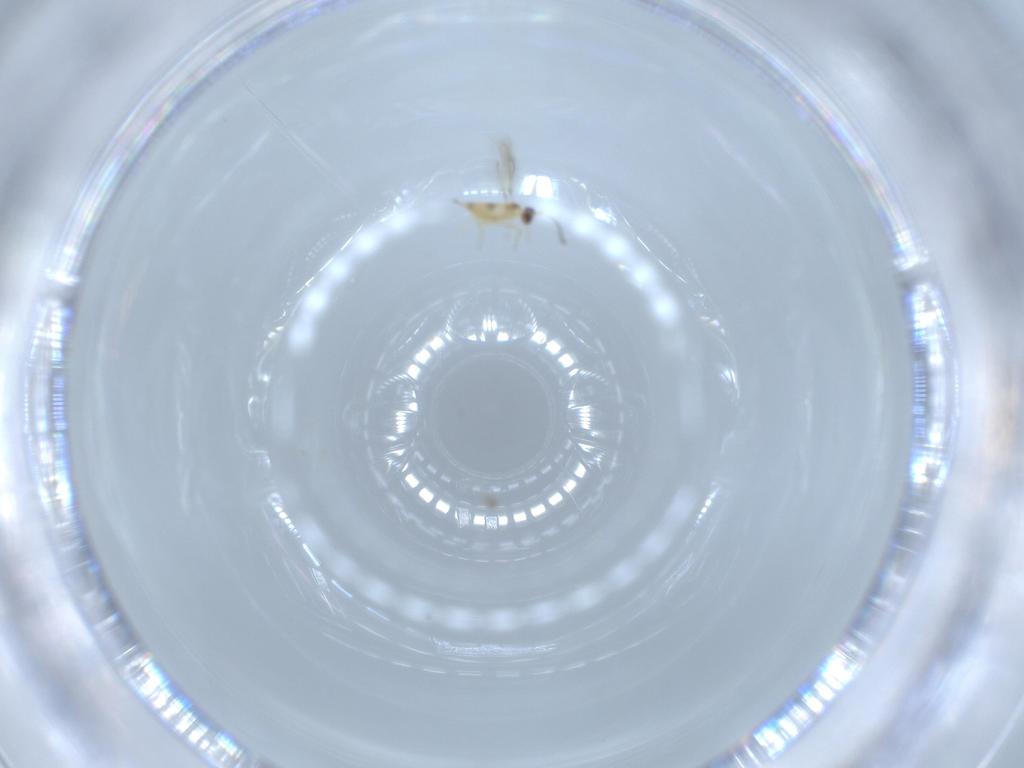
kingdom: Animalia
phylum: Arthropoda
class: Insecta
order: Hymenoptera
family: Mymaridae
